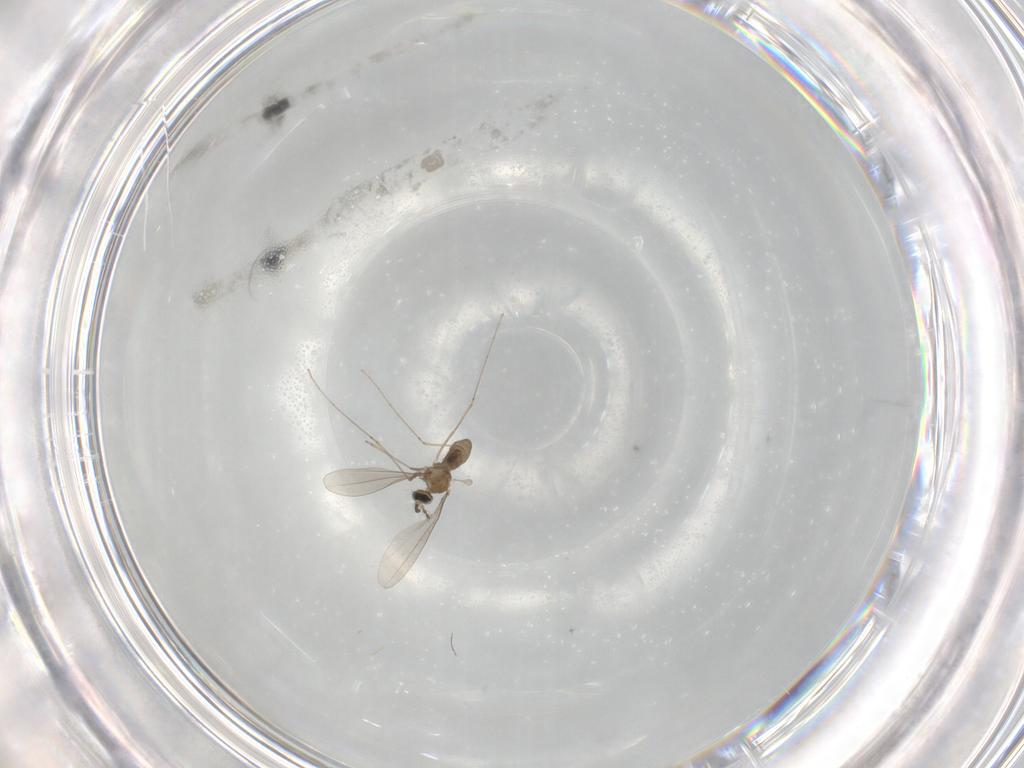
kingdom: Animalia
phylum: Arthropoda
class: Insecta
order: Diptera
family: Cecidomyiidae
